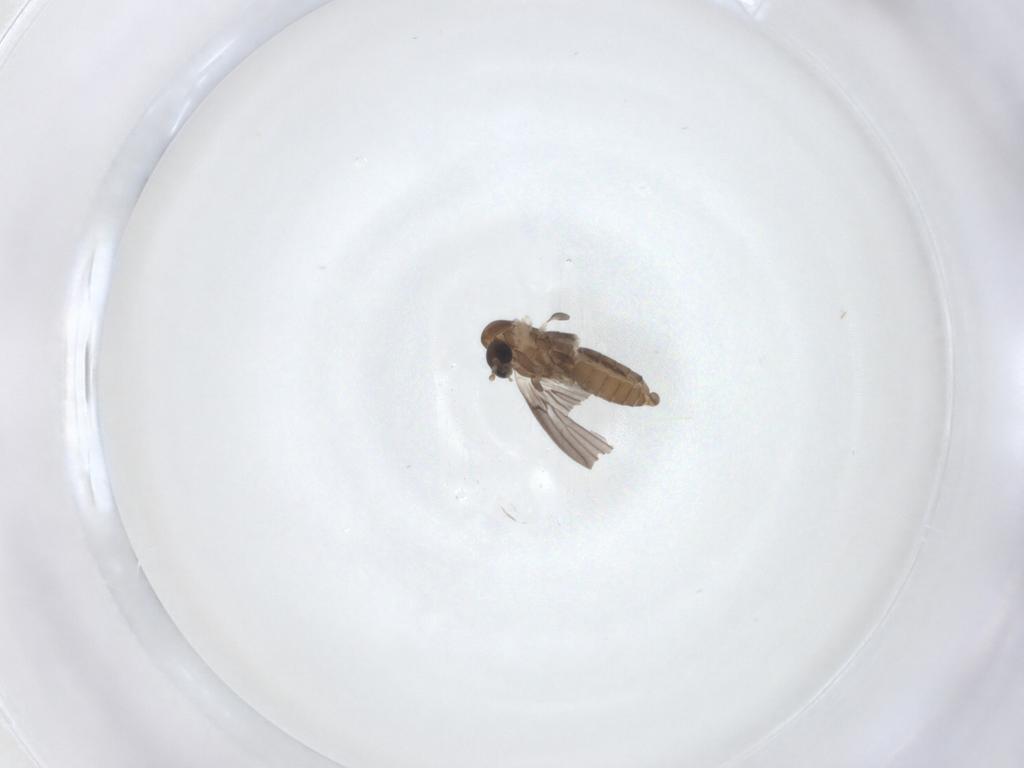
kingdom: Animalia
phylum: Arthropoda
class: Insecta
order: Diptera
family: Psychodidae
